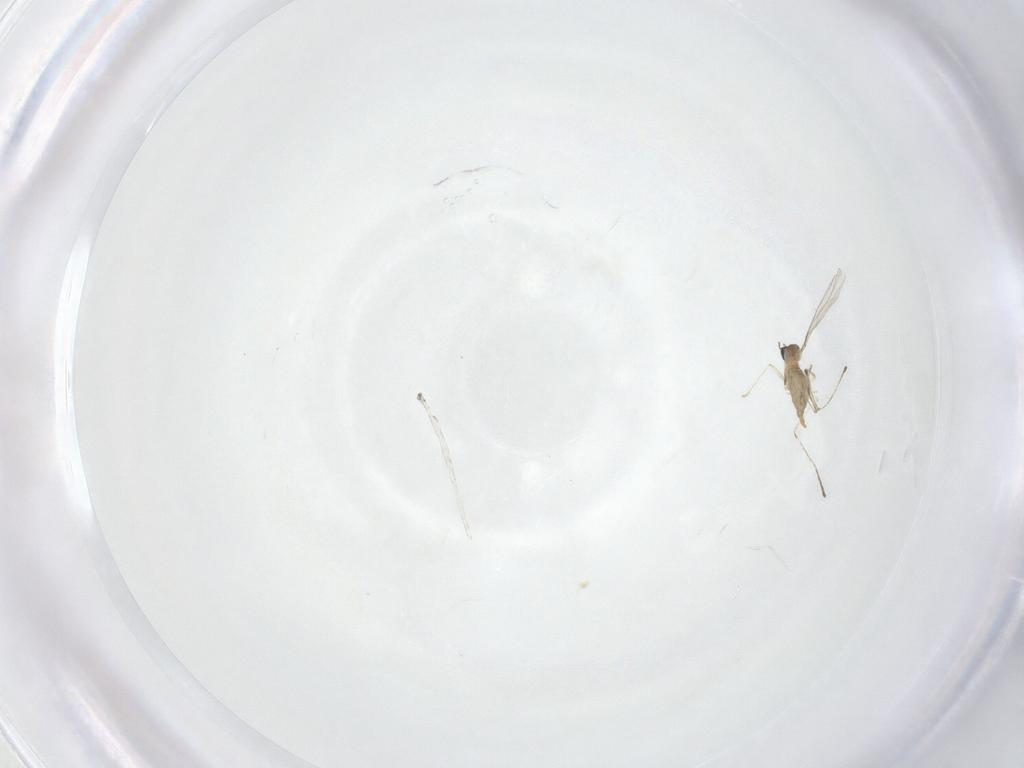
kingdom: Animalia
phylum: Arthropoda
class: Insecta
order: Diptera
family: Cecidomyiidae
